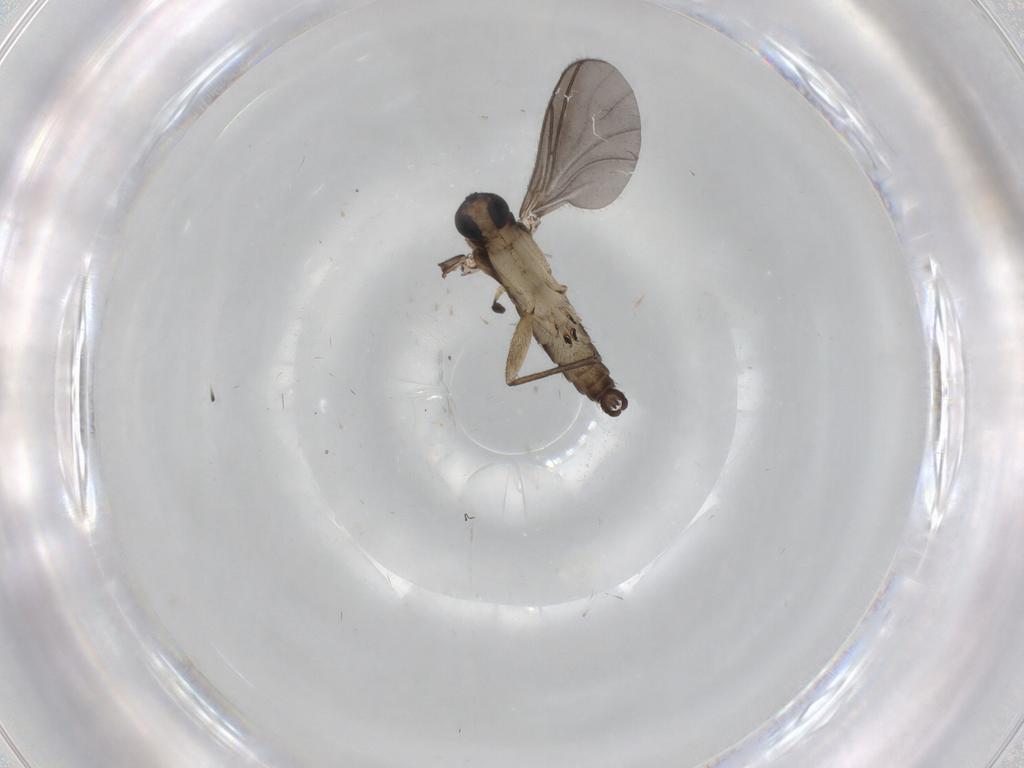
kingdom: Animalia
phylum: Arthropoda
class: Insecta
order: Diptera
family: Sciaridae
